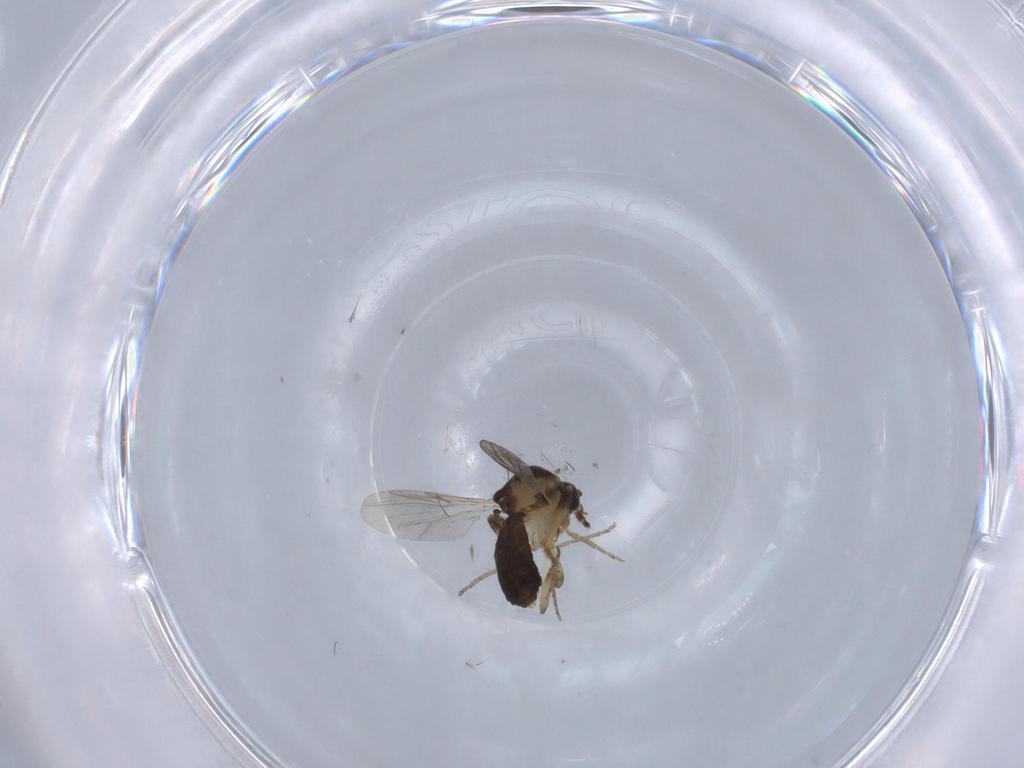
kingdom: Animalia
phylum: Arthropoda
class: Insecta
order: Diptera
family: Ceratopogonidae
